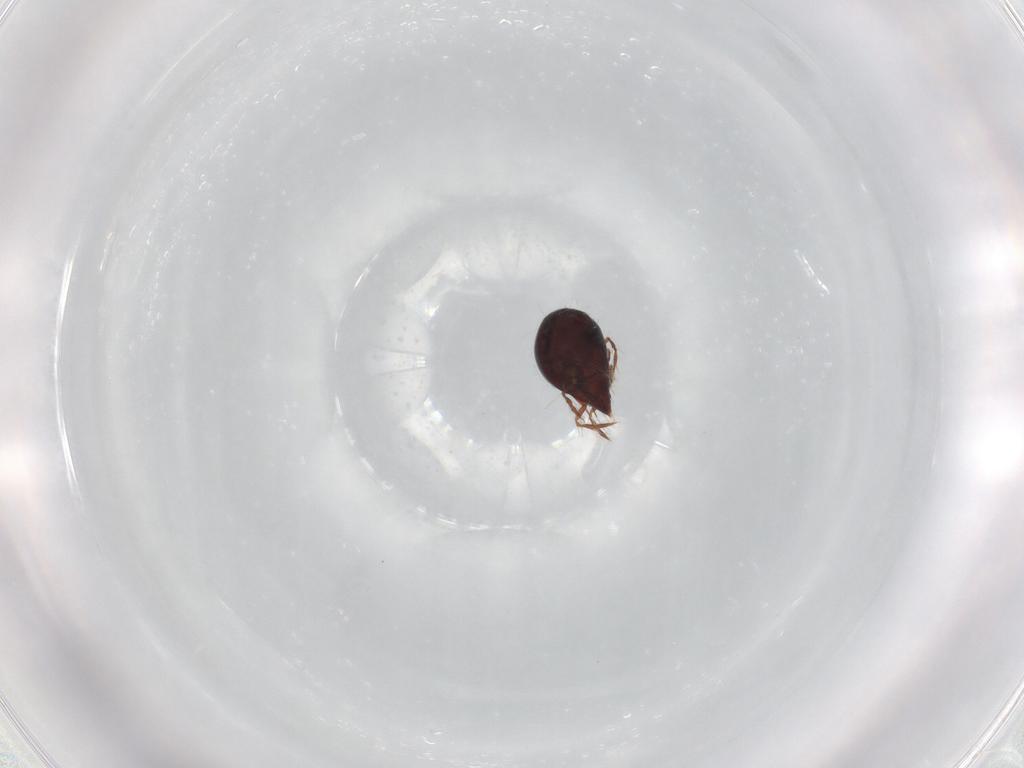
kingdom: Animalia
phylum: Arthropoda
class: Arachnida
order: Sarcoptiformes
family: Ceratoppiidae
